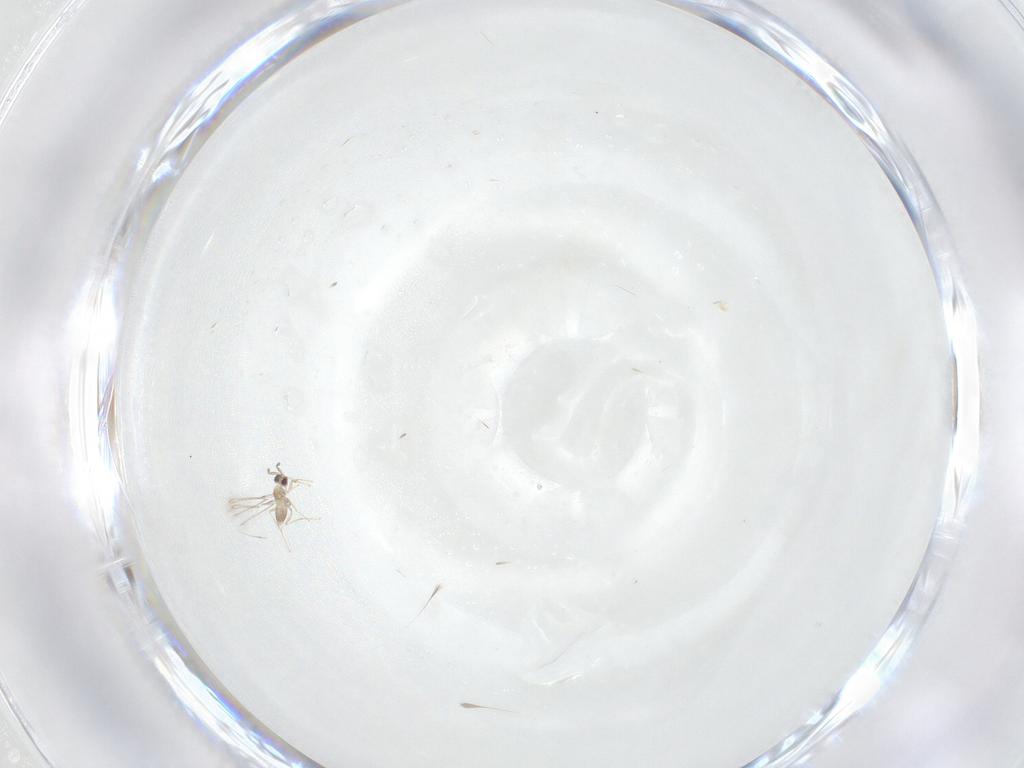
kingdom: Animalia
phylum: Arthropoda
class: Insecta
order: Hymenoptera
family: Mymaridae
